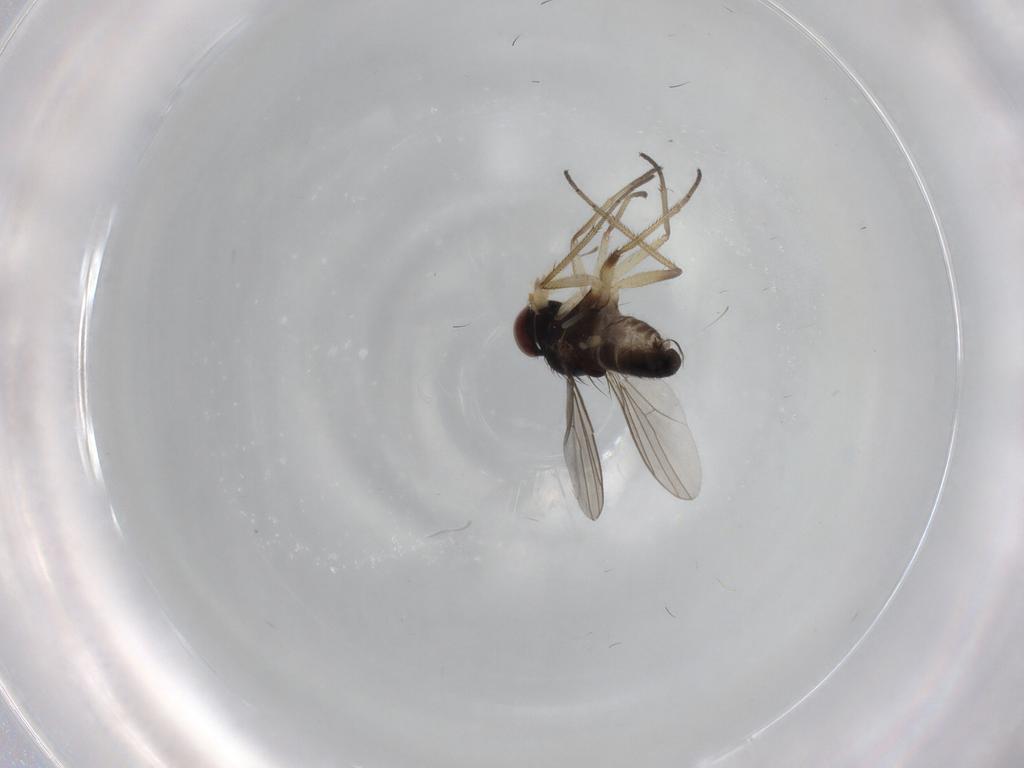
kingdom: Animalia
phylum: Arthropoda
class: Insecta
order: Diptera
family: Dolichopodidae
